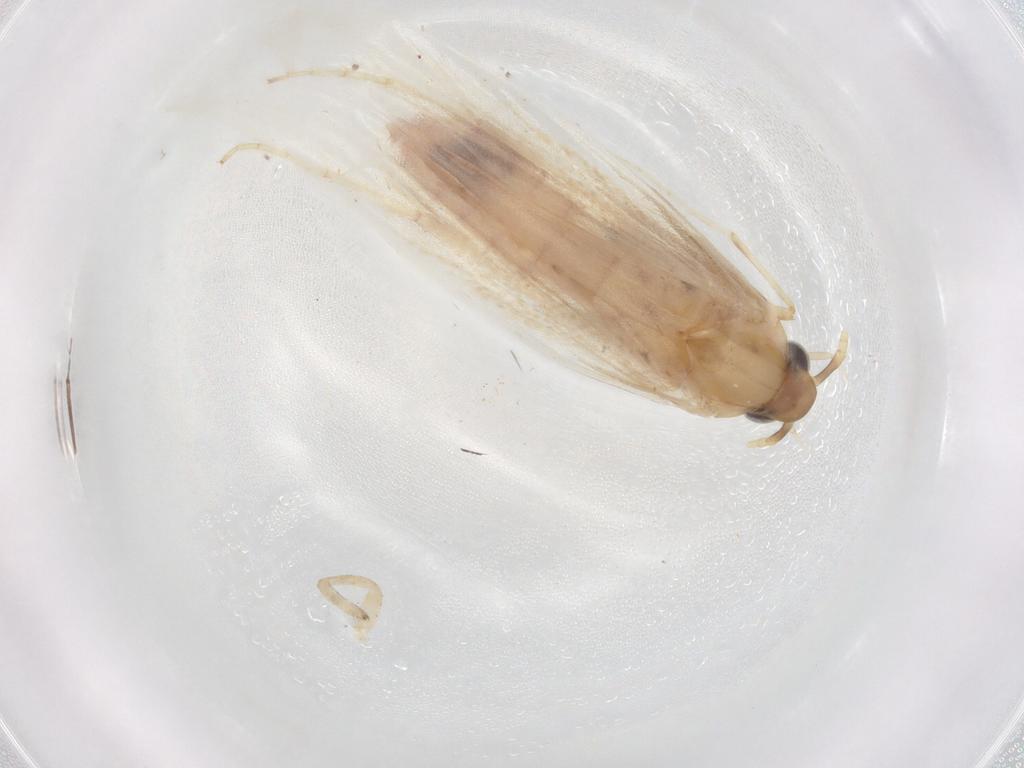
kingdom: Animalia
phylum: Arthropoda
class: Insecta
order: Lepidoptera
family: Coleophoridae
